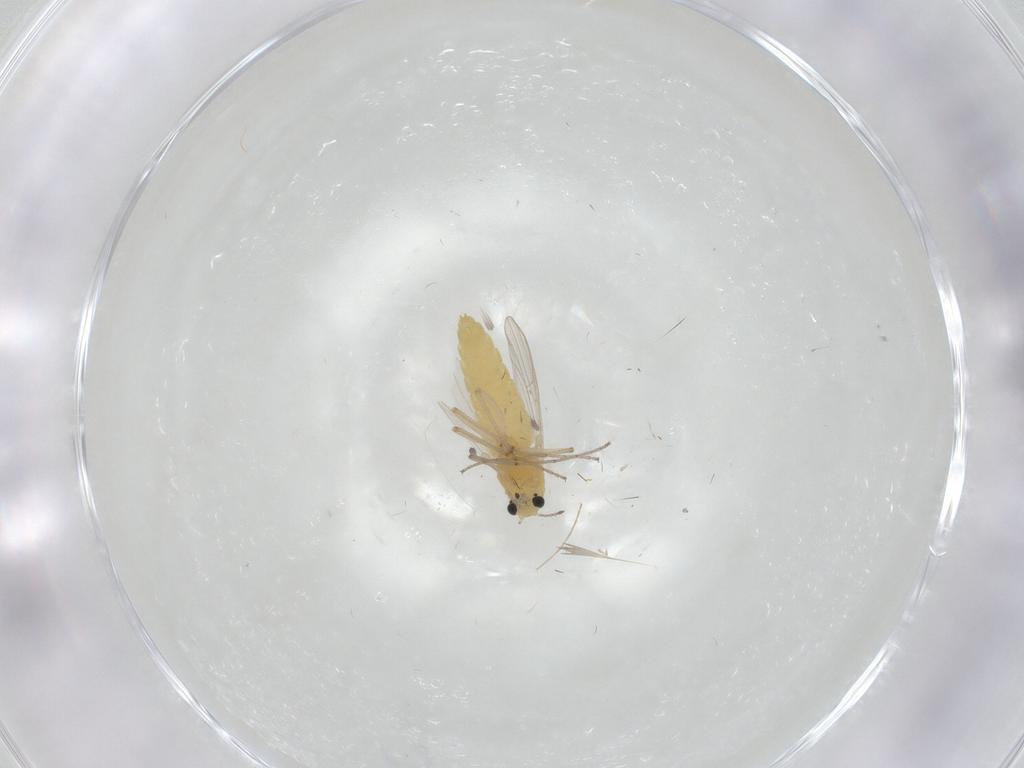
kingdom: Animalia
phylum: Arthropoda
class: Insecta
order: Diptera
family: Chironomidae
